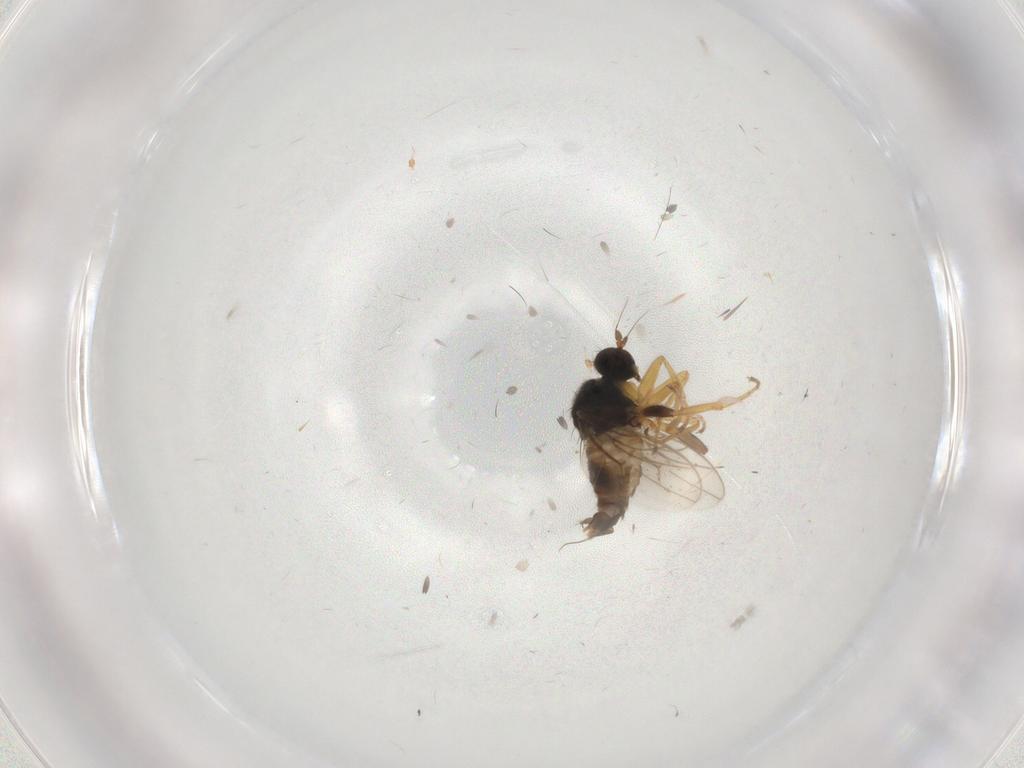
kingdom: Animalia
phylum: Arthropoda
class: Insecta
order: Diptera
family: Hybotidae
